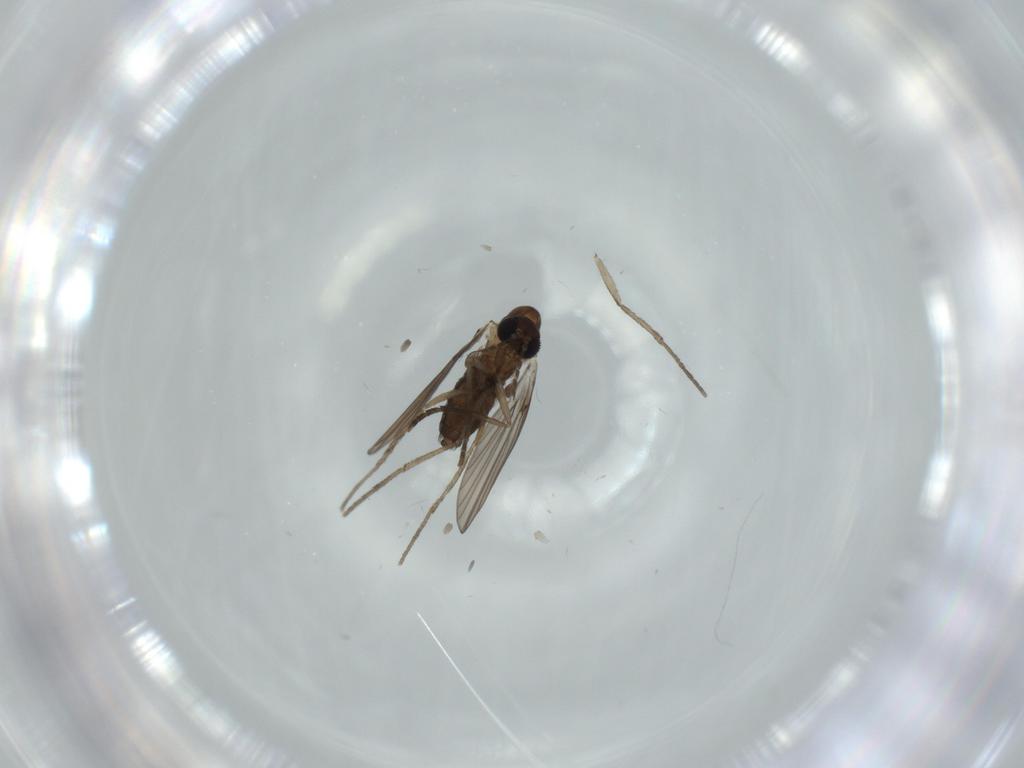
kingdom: Animalia
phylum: Arthropoda
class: Insecta
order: Diptera
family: Psychodidae
